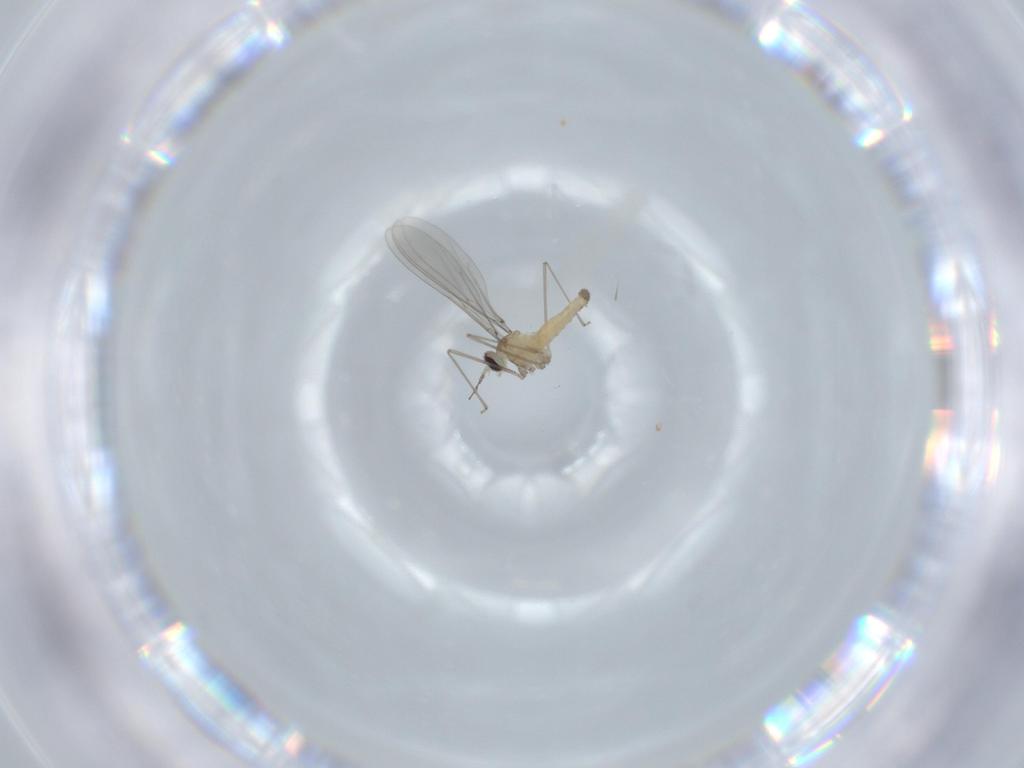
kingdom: Animalia
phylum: Arthropoda
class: Insecta
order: Diptera
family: Cecidomyiidae
